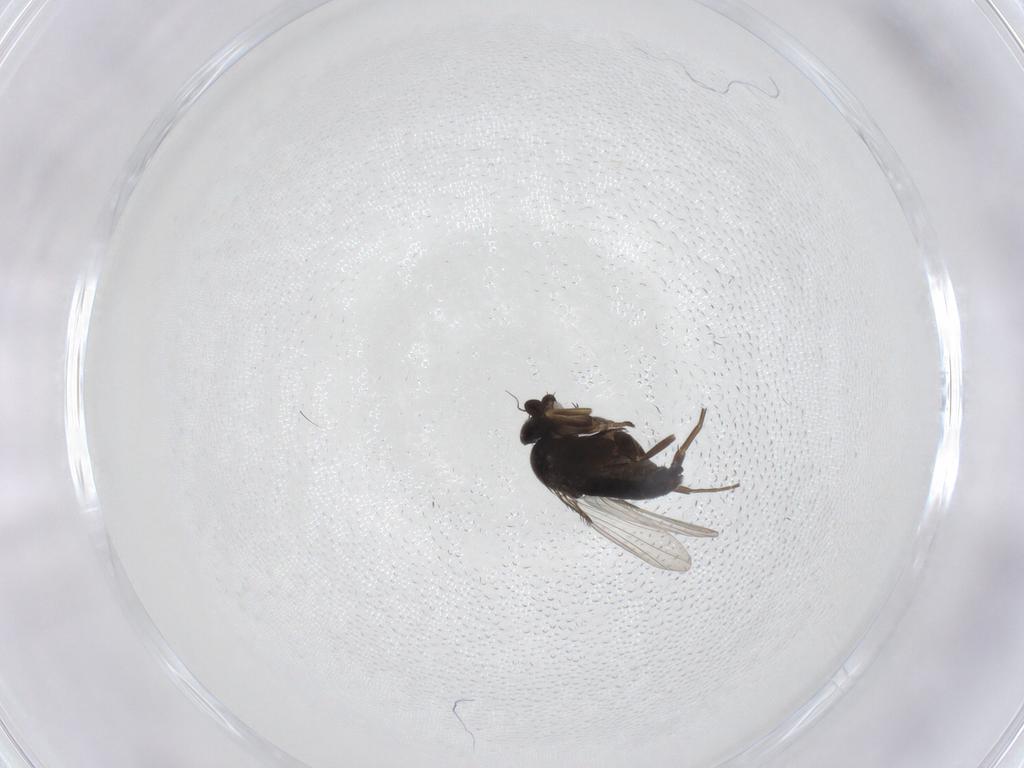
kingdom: Animalia
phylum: Arthropoda
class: Insecta
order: Diptera
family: Muscidae
